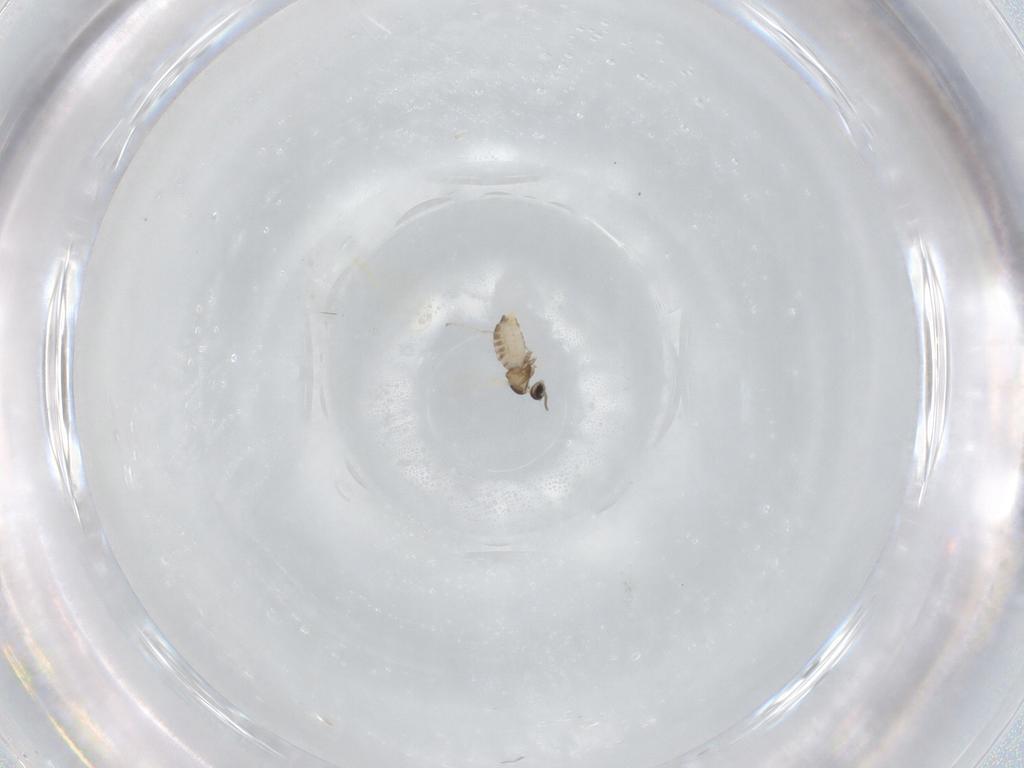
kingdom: Animalia
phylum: Arthropoda
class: Insecta
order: Diptera
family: Cecidomyiidae
